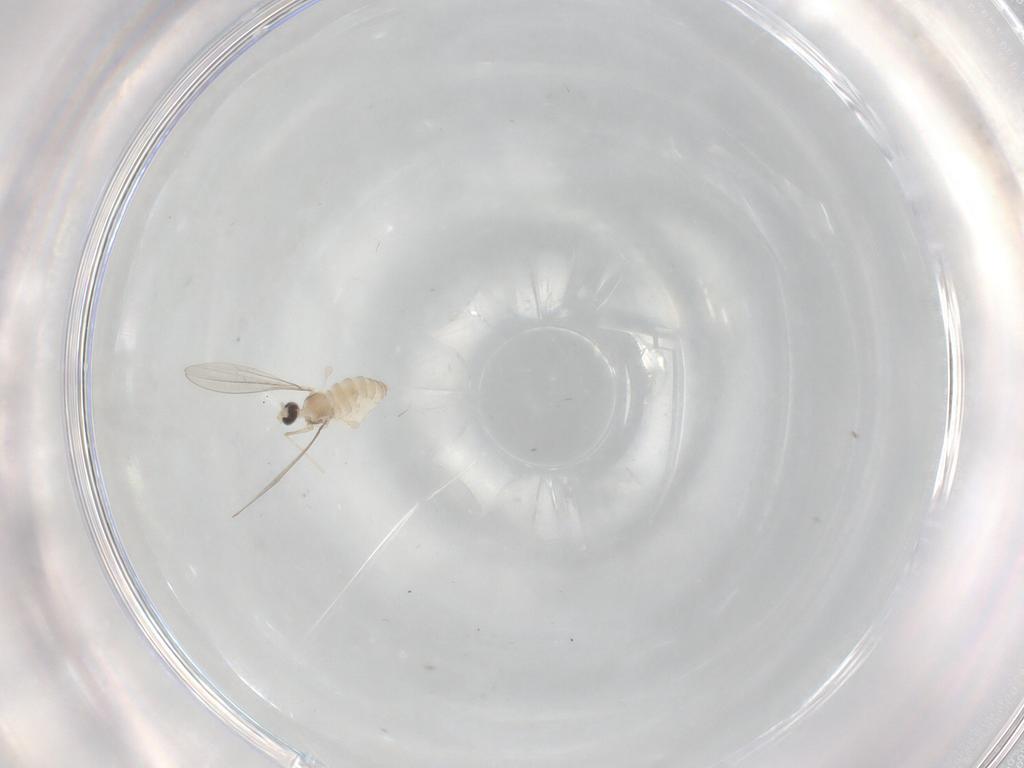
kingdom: Animalia
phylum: Arthropoda
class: Insecta
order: Diptera
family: Cecidomyiidae
